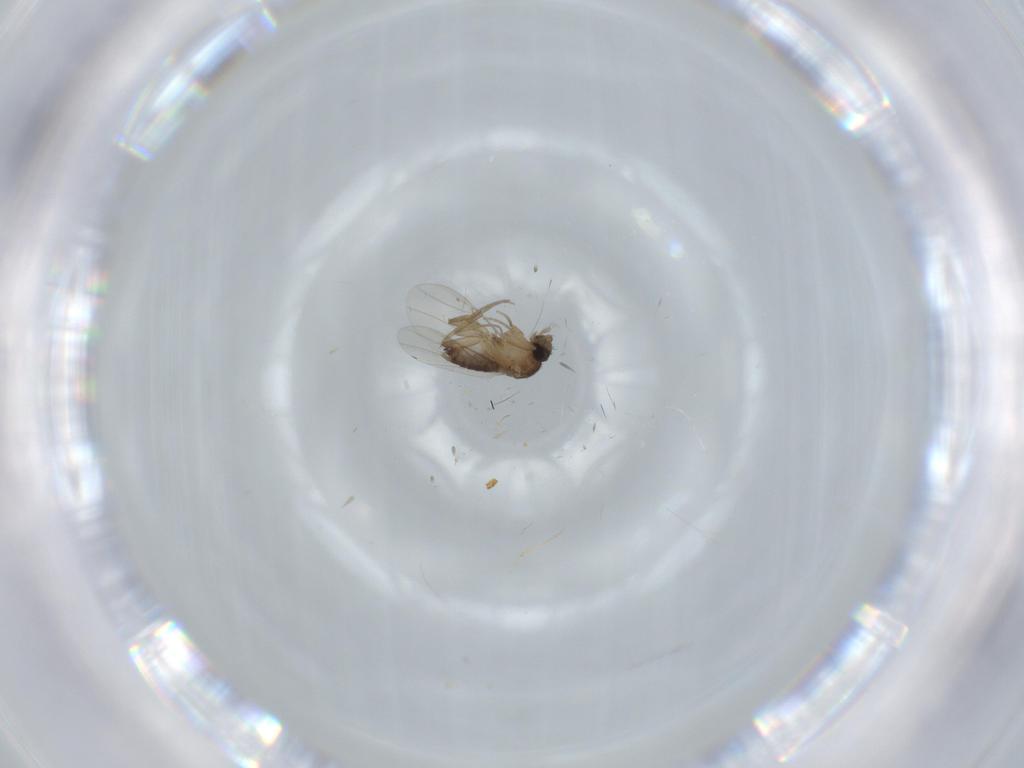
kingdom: Animalia
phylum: Arthropoda
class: Insecta
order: Diptera
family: Phoridae
